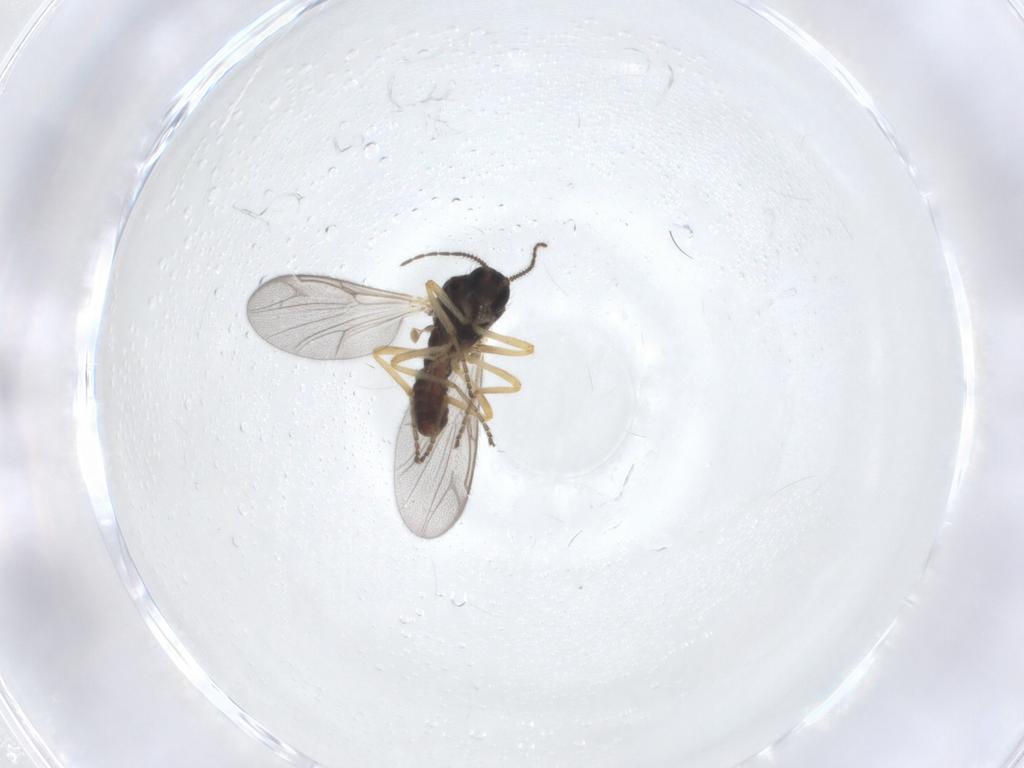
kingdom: Animalia
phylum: Arthropoda
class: Insecta
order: Diptera
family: Ceratopogonidae
